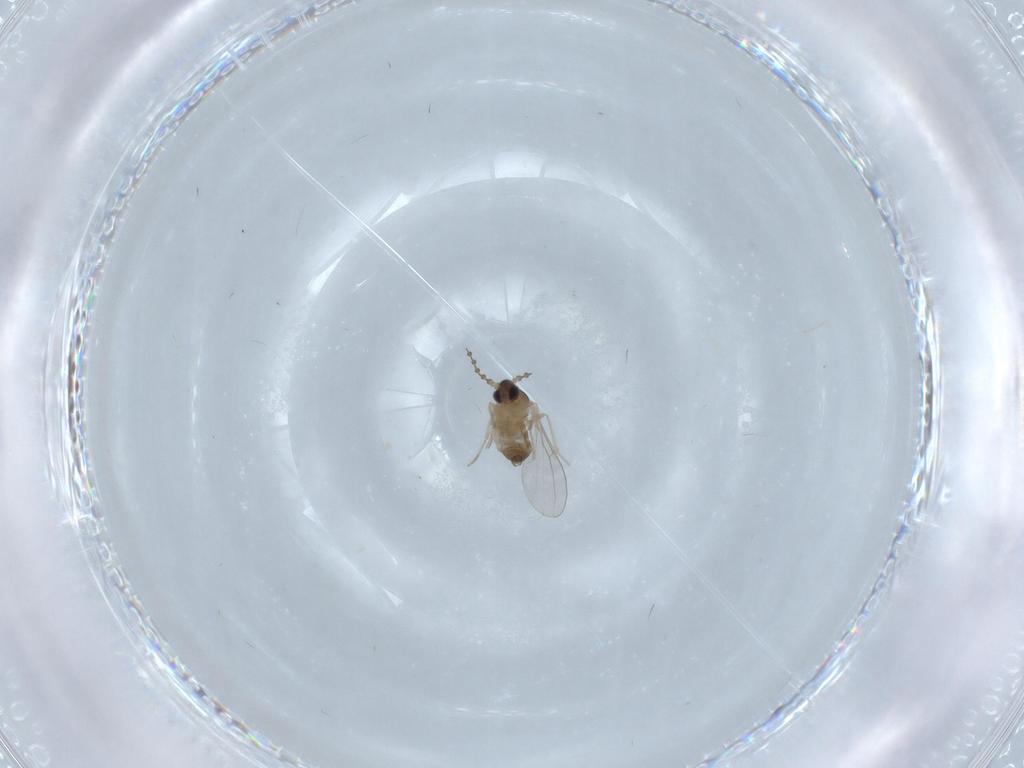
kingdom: Animalia
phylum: Arthropoda
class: Insecta
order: Diptera
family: Cecidomyiidae
